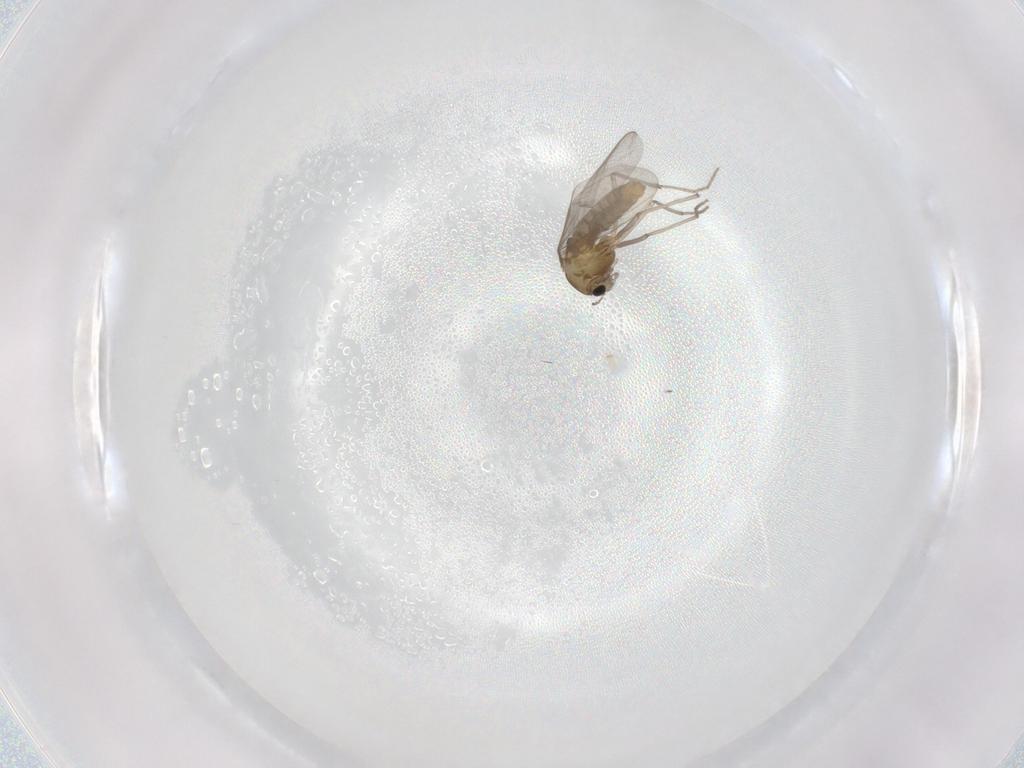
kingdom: Animalia
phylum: Arthropoda
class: Insecta
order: Diptera
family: Chironomidae
